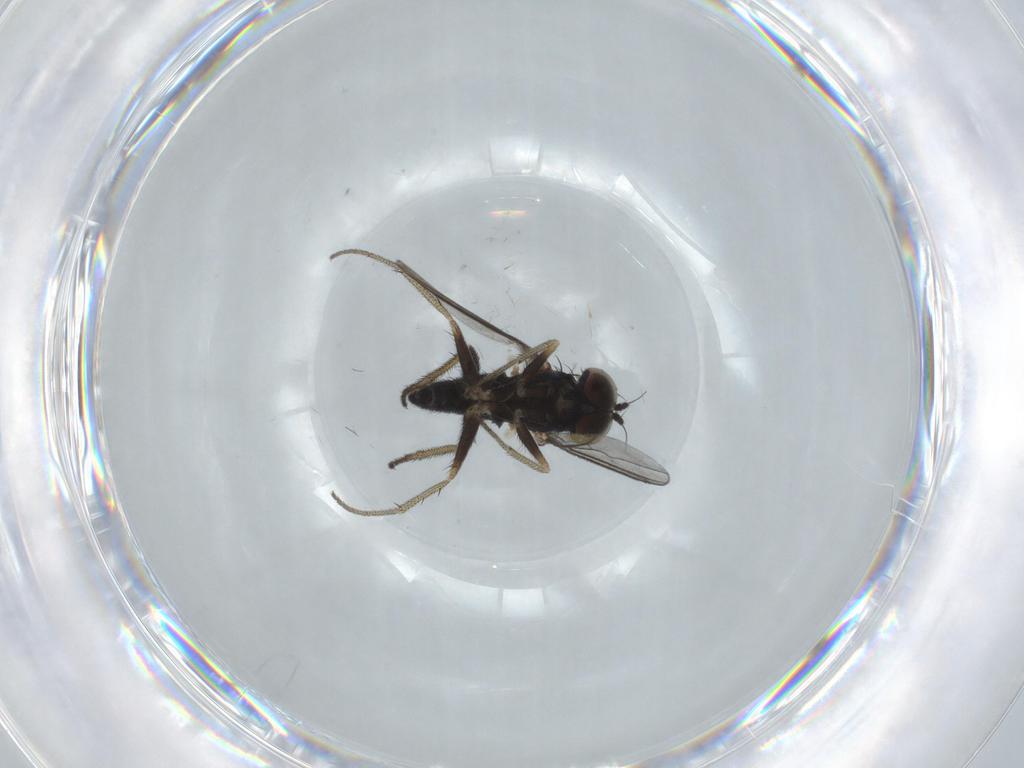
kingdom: Animalia
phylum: Arthropoda
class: Insecta
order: Diptera
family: Dolichopodidae
